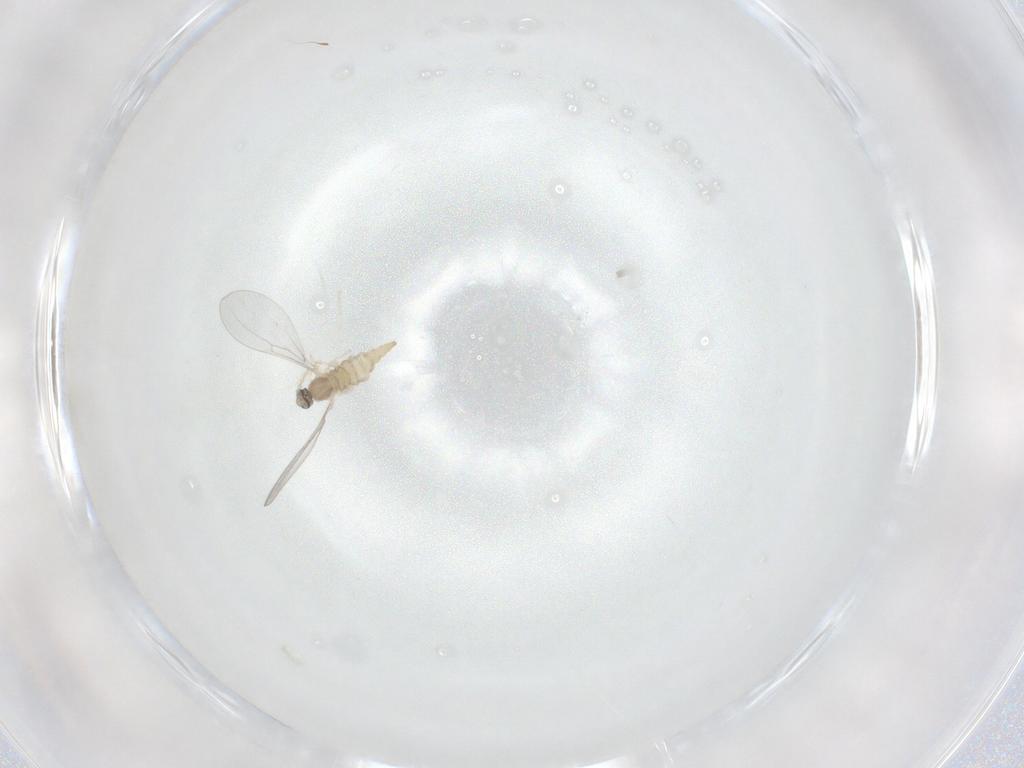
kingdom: Animalia
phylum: Arthropoda
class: Insecta
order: Diptera
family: Cecidomyiidae
